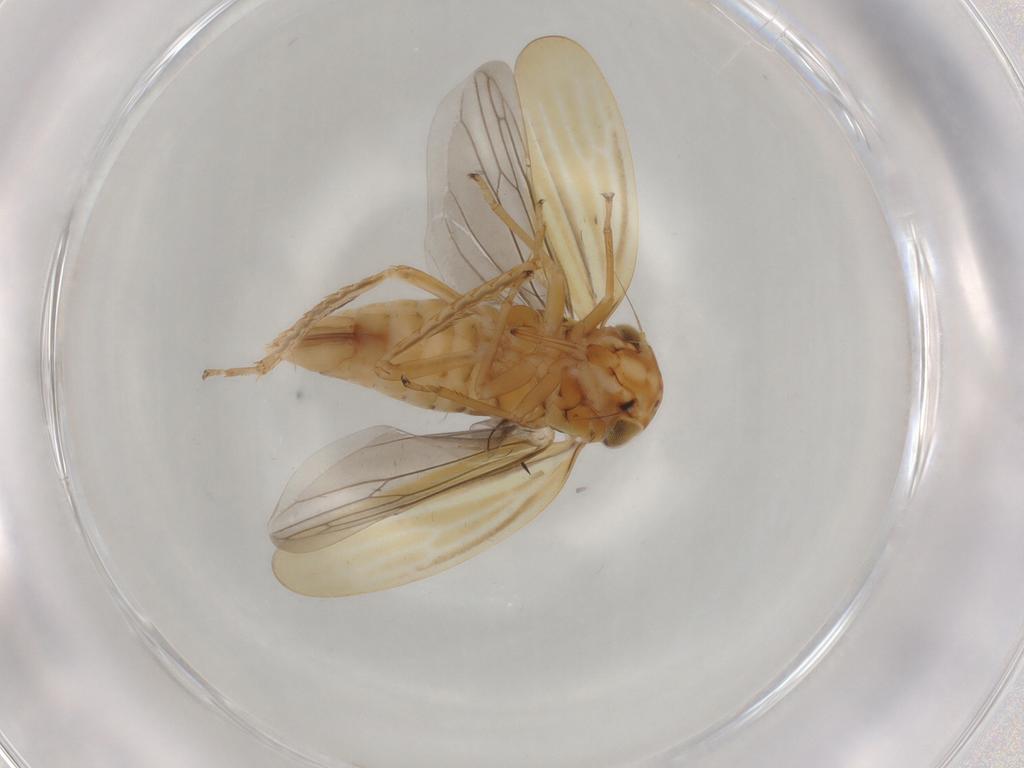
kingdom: Animalia
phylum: Arthropoda
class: Insecta
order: Hemiptera
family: Cicadellidae
